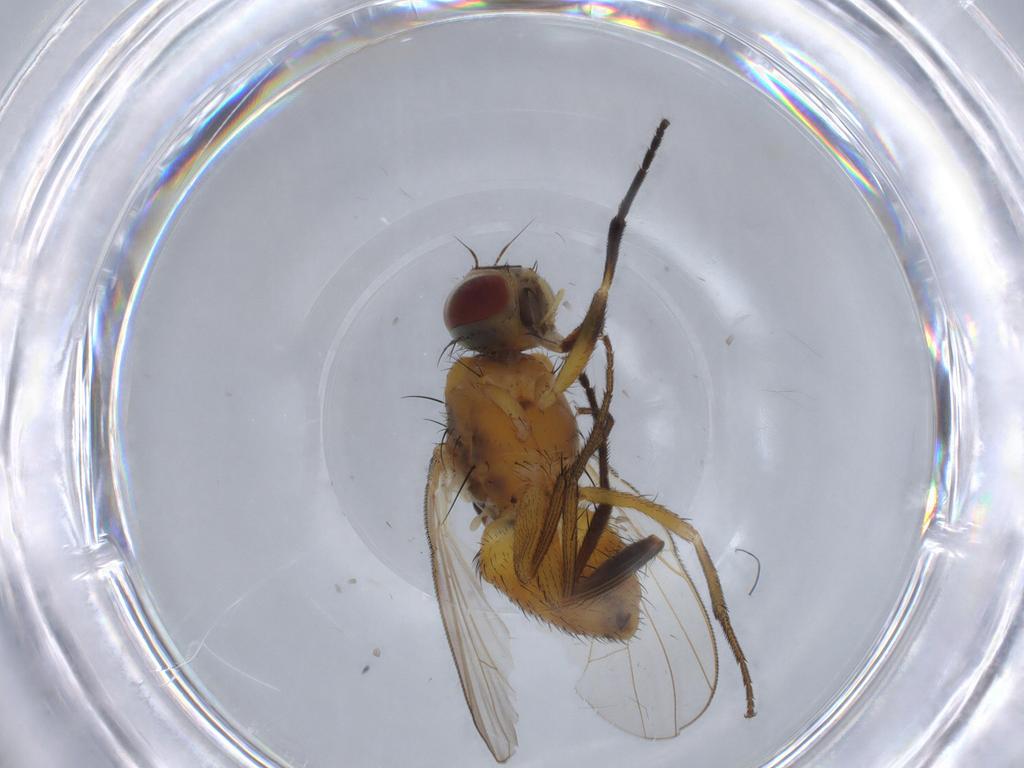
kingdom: Animalia
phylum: Arthropoda
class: Insecta
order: Diptera
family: Muscidae
